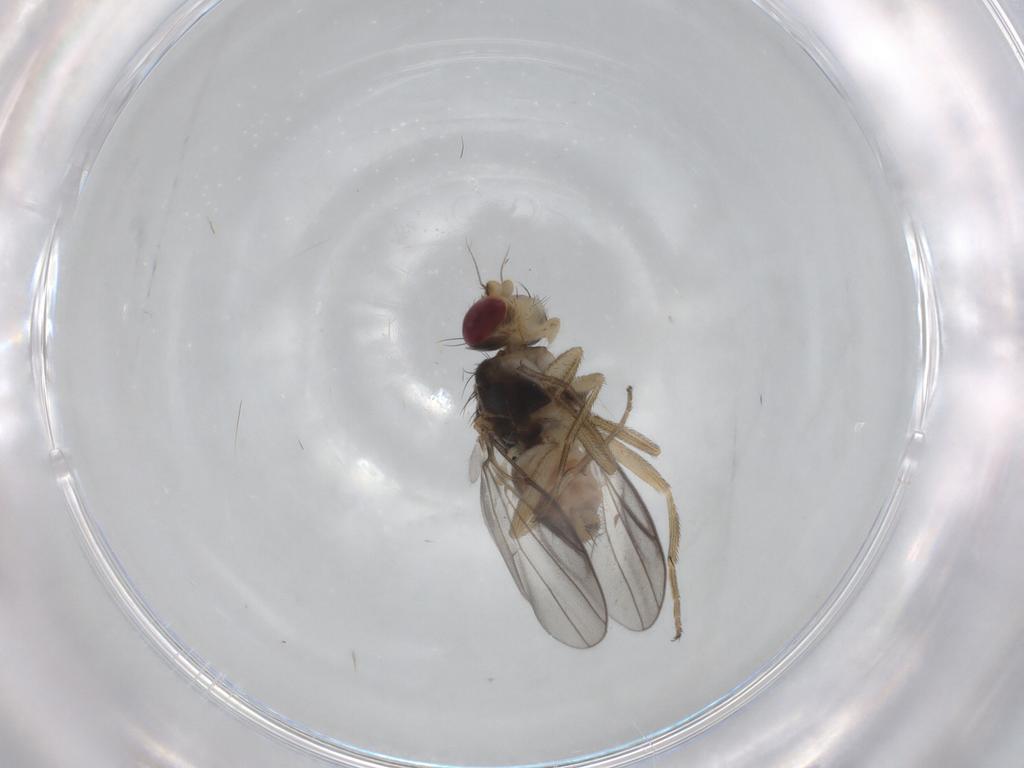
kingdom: Animalia
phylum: Arthropoda
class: Insecta
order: Diptera
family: Chloropidae
